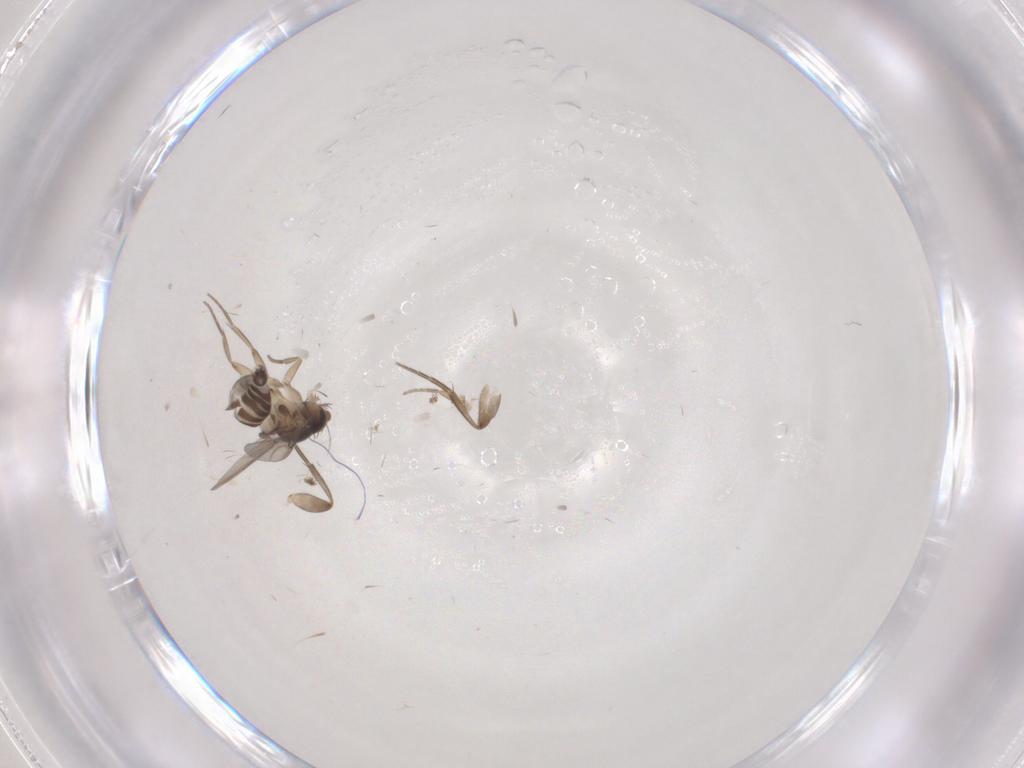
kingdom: Animalia
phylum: Arthropoda
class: Insecta
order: Diptera
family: Phoridae
